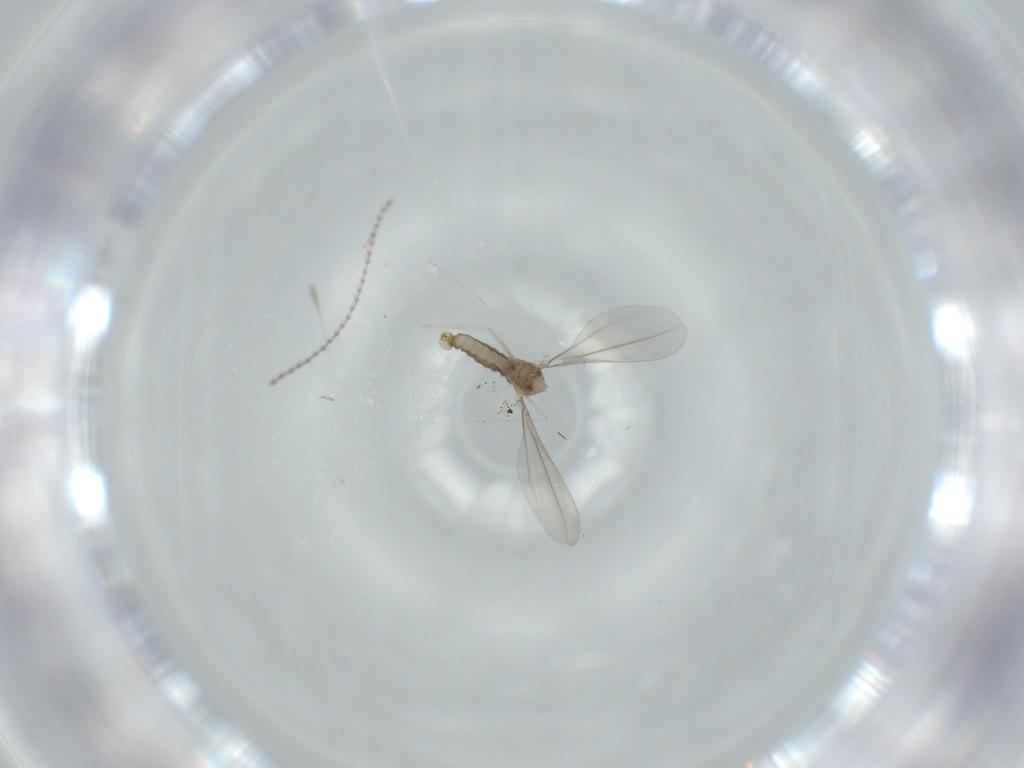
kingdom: Animalia
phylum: Arthropoda
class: Insecta
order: Diptera
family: Cecidomyiidae
